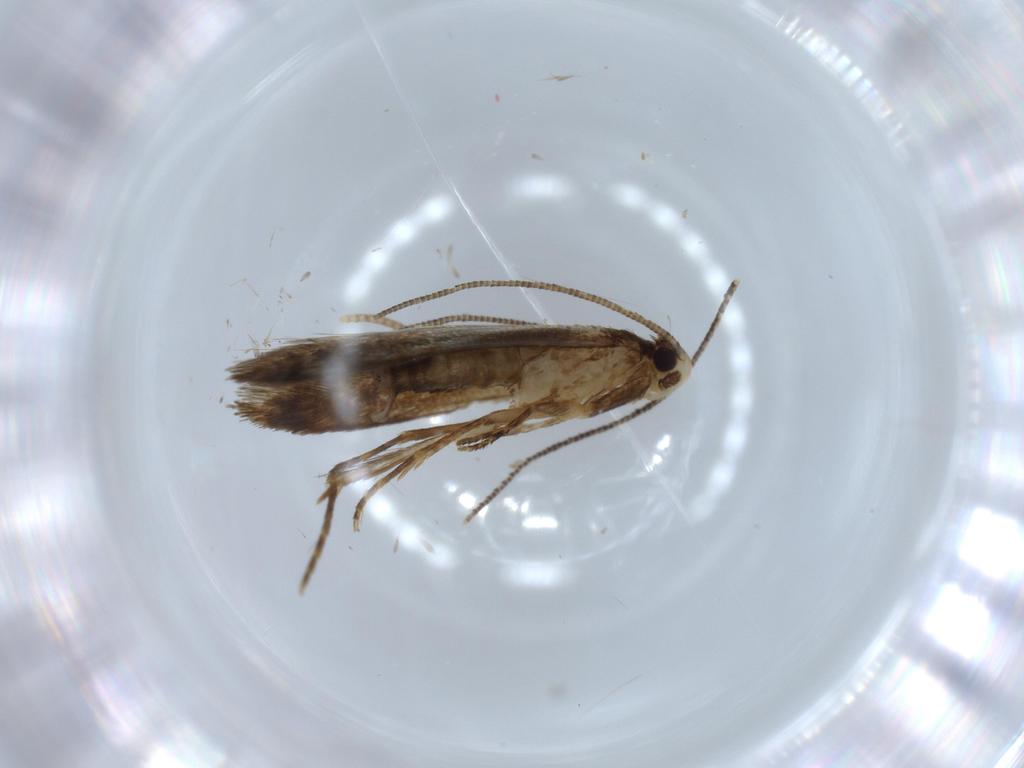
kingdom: Animalia
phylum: Arthropoda
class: Insecta
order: Lepidoptera
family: Tineidae
